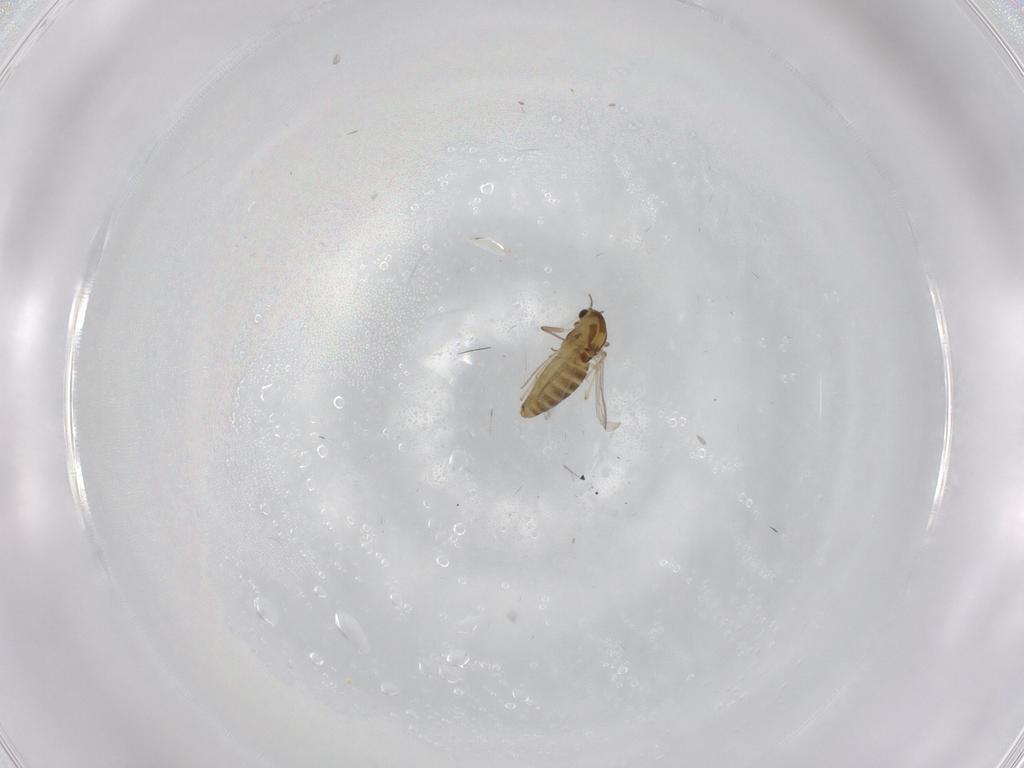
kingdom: Animalia
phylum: Arthropoda
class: Insecta
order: Diptera
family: Chironomidae
